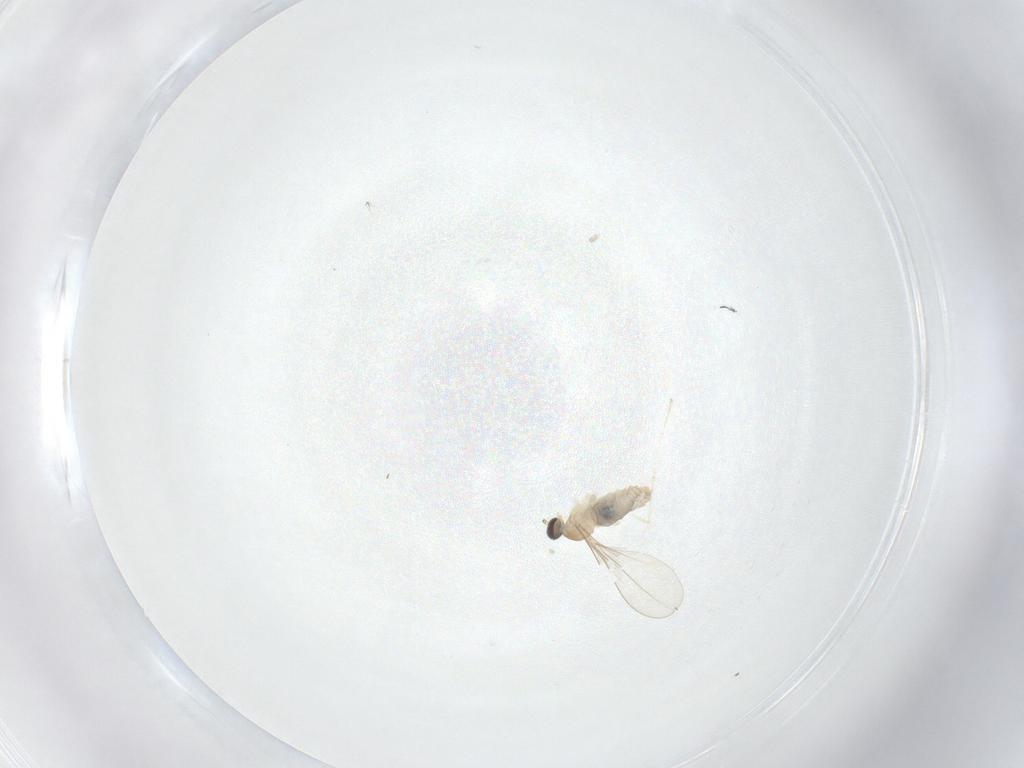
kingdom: Animalia
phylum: Arthropoda
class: Insecta
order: Diptera
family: Cecidomyiidae
